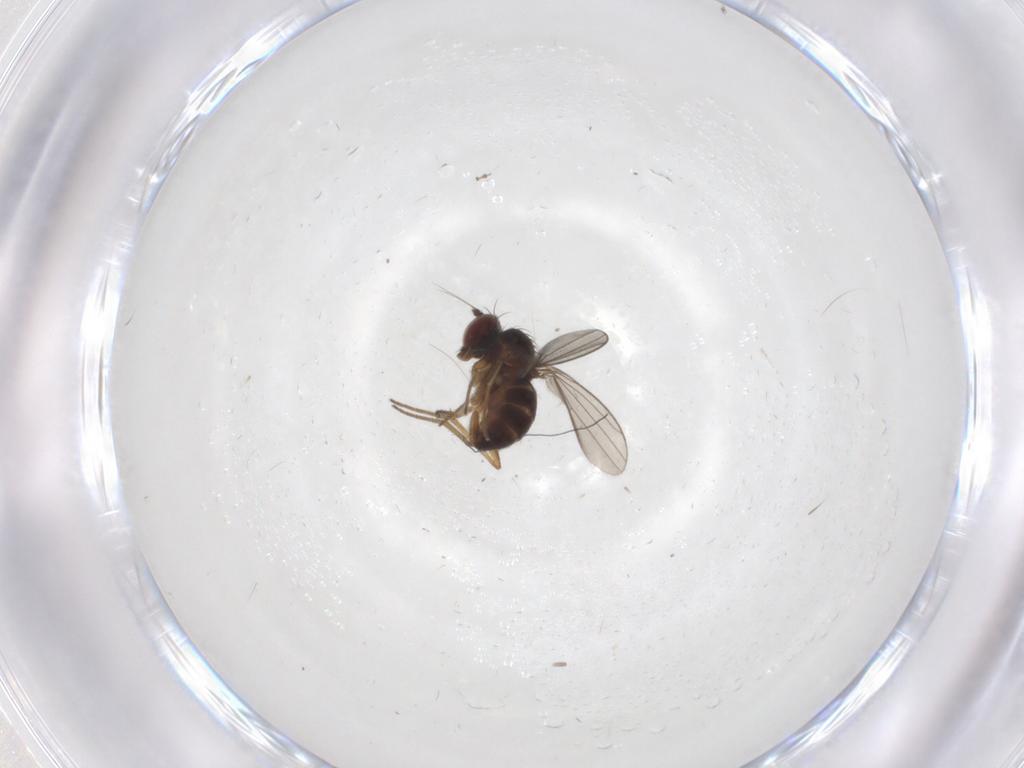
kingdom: Animalia
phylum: Arthropoda
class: Insecta
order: Diptera
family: Dolichopodidae
